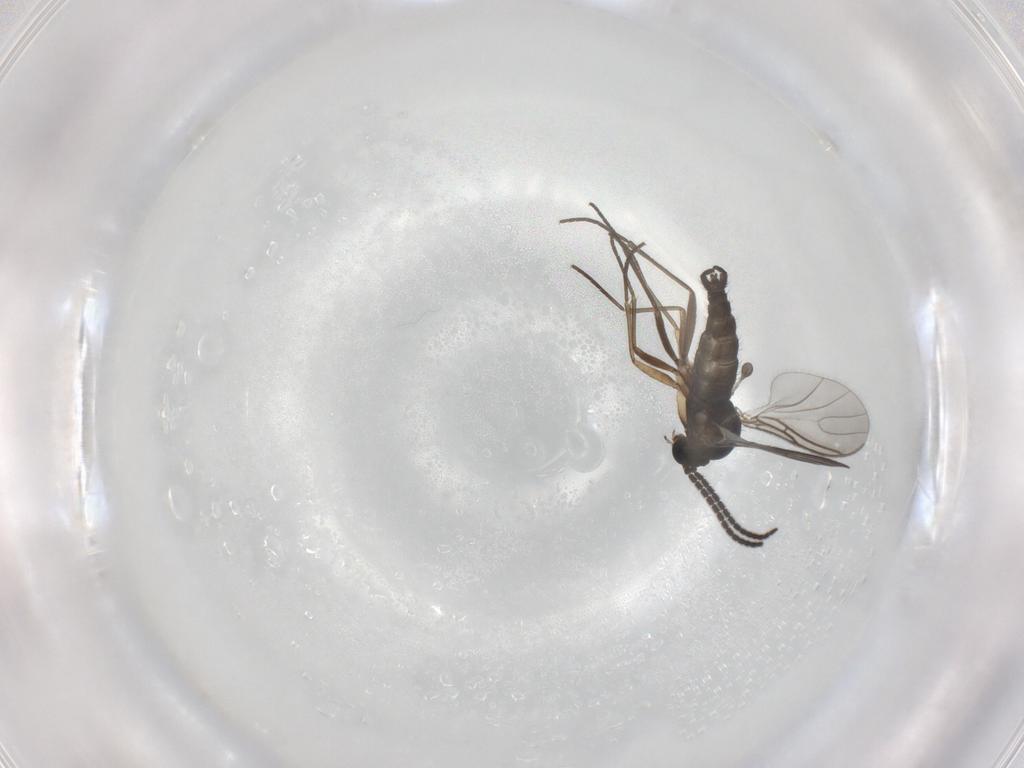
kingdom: Animalia
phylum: Arthropoda
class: Insecta
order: Diptera
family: Sciaridae
